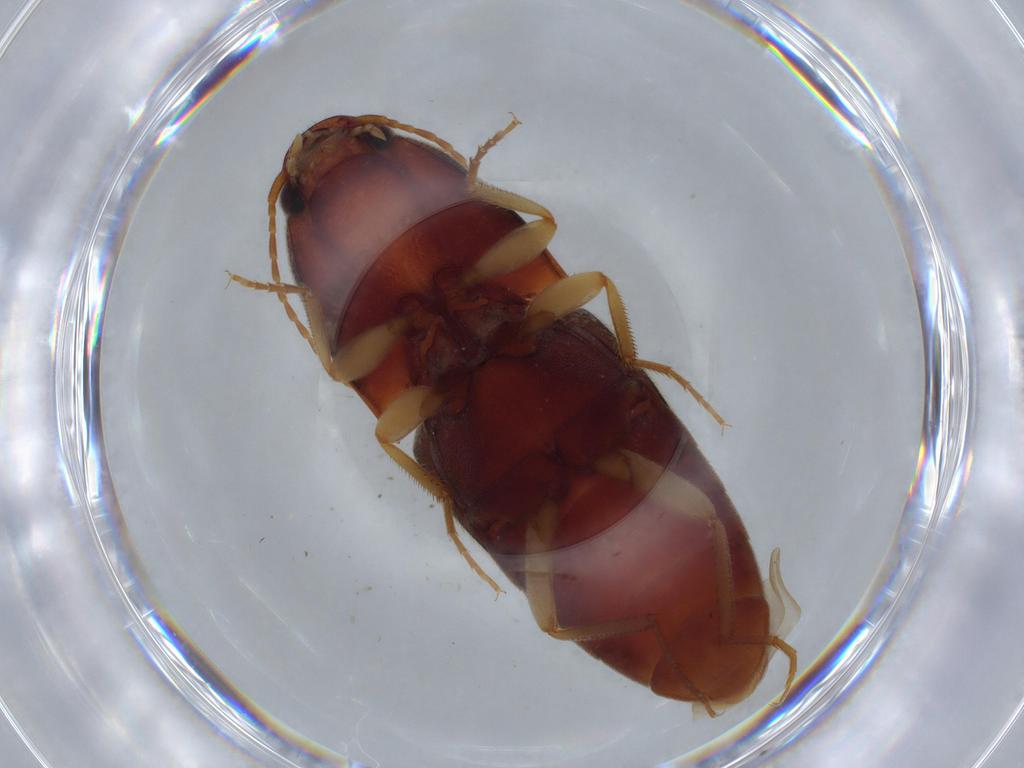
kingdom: Animalia
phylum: Arthropoda
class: Insecta
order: Coleoptera
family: Elateridae
